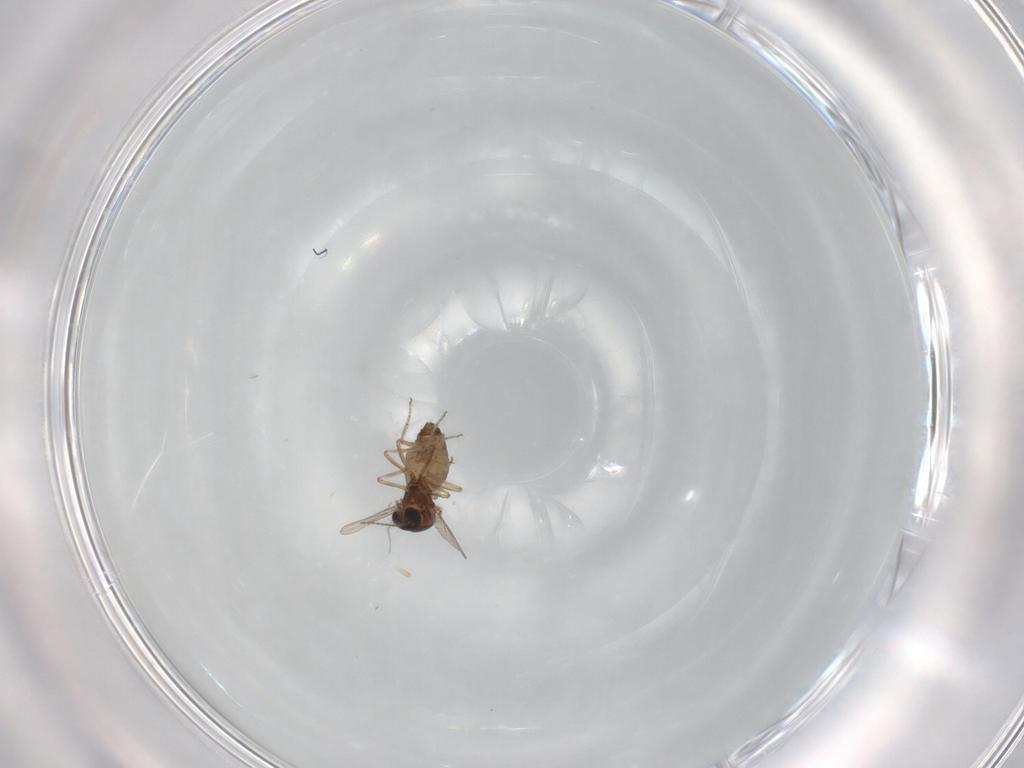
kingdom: Animalia
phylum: Arthropoda
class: Insecta
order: Diptera
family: Ceratopogonidae
